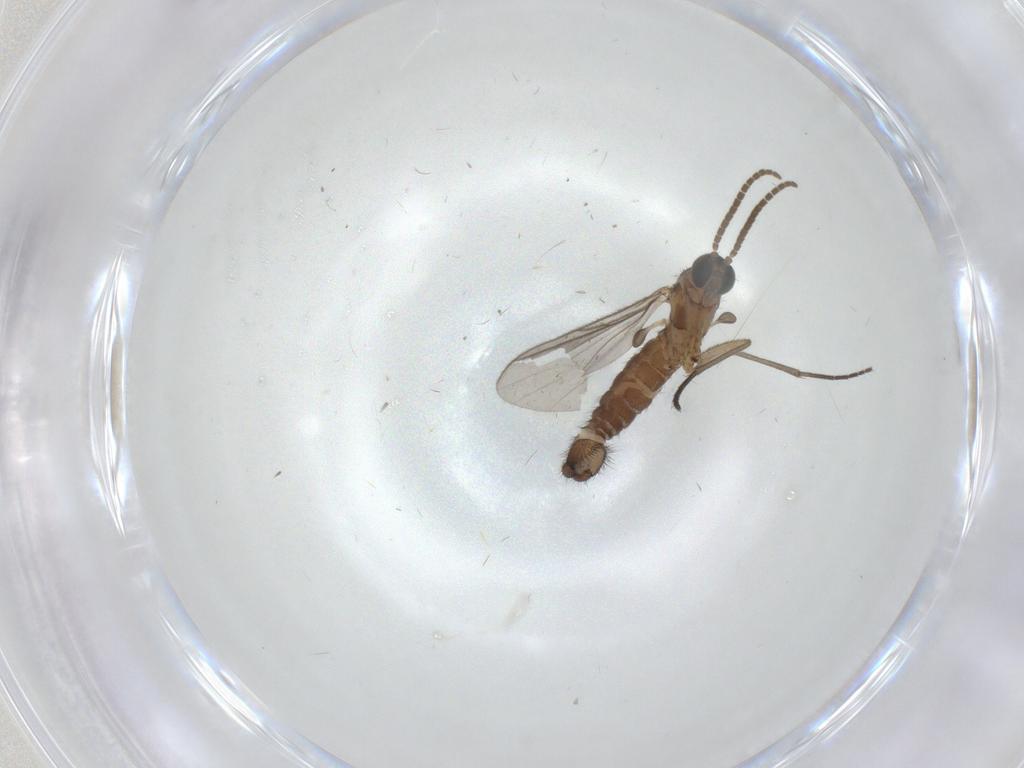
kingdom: Animalia
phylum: Arthropoda
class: Insecta
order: Diptera
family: Sciaridae
